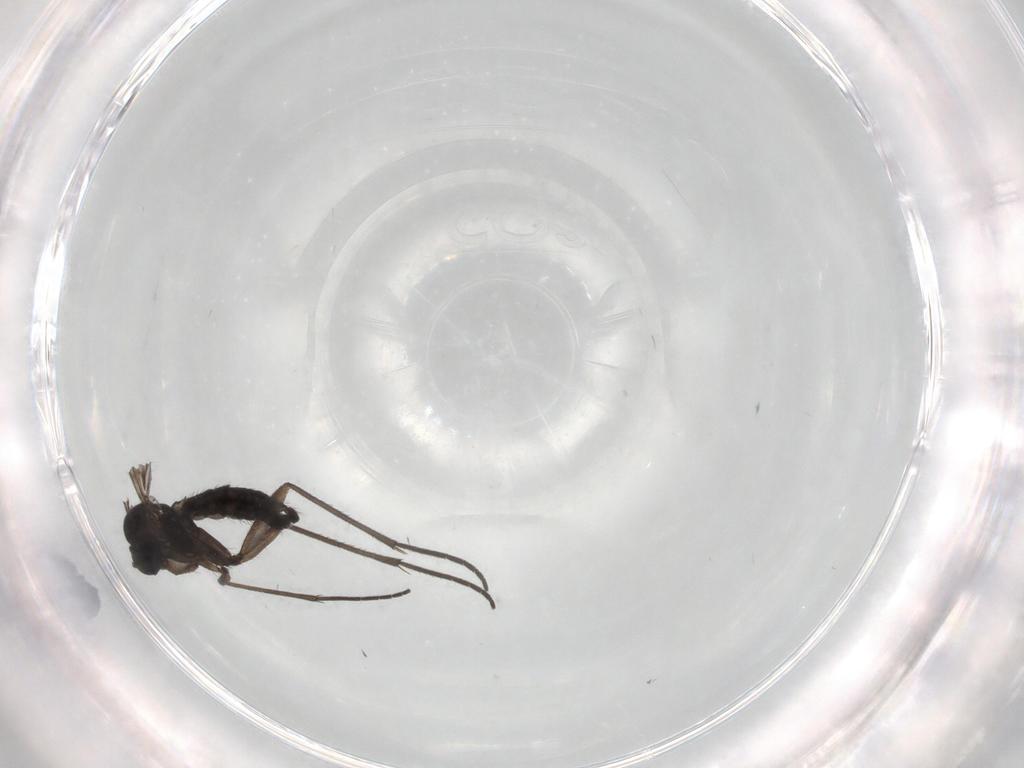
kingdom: Animalia
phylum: Arthropoda
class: Insecta
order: Diptera
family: Sciaridae
